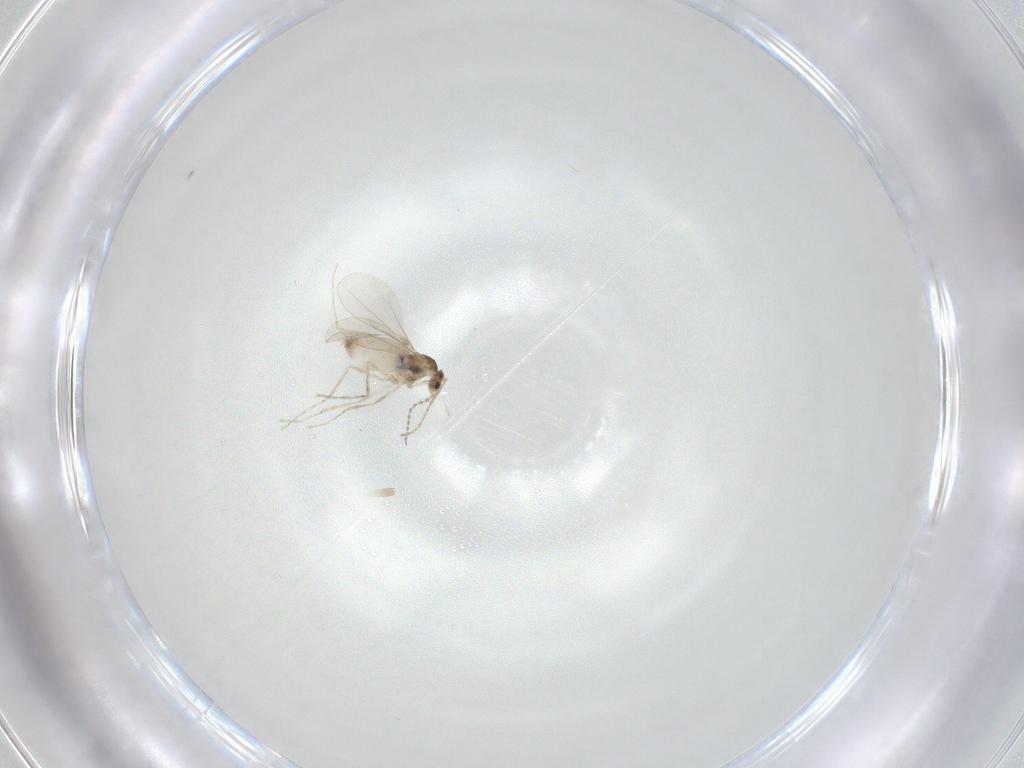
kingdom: Animalia
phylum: Arthropoda
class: Insecta
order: Diptera
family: Cecidomyiidae
